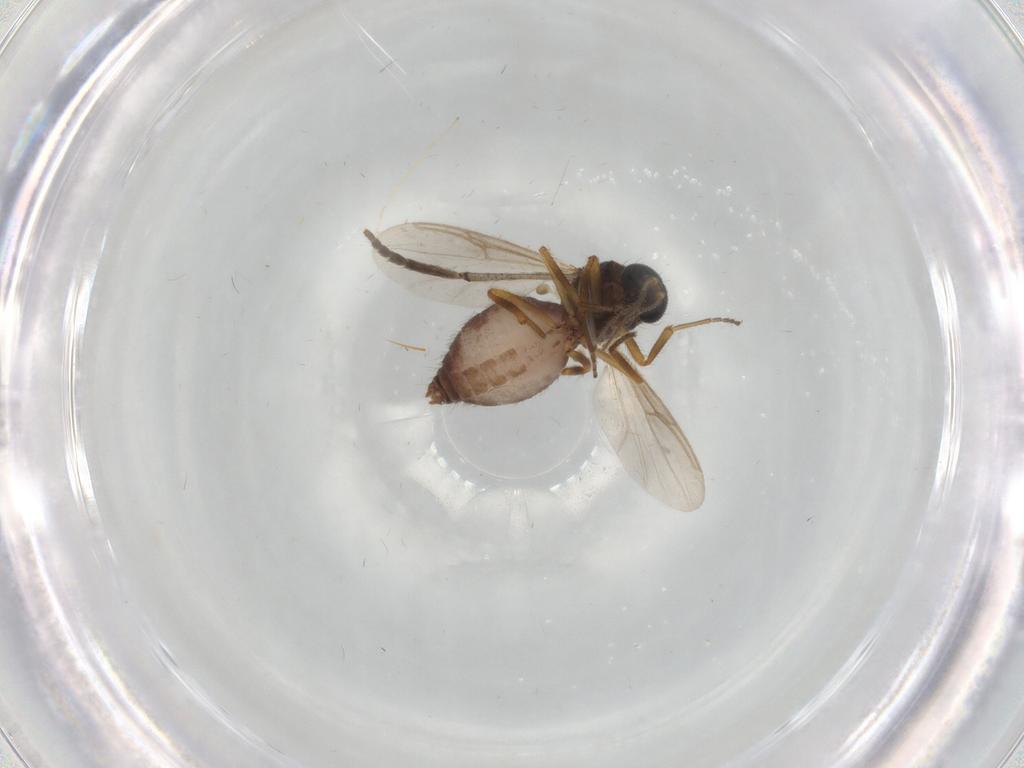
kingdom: Animalia
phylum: Arthropoda
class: Insecta
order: Diptera
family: Ceratopogonidae
